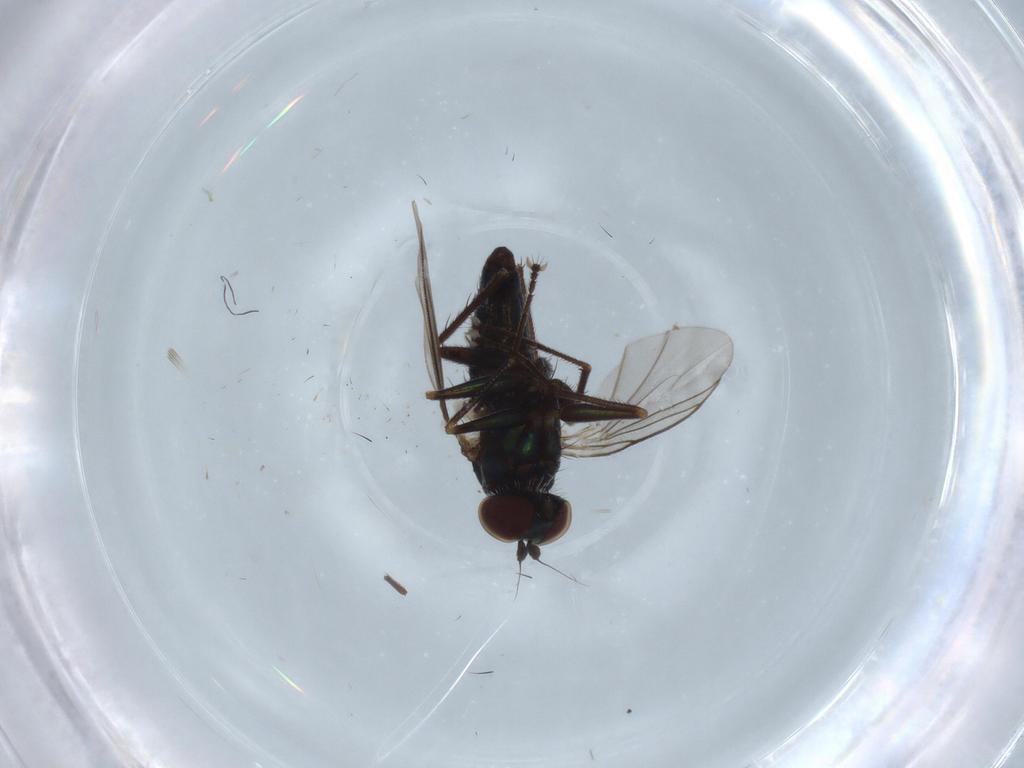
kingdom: Animalia
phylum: Arthropoda
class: Insecta
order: Diptera
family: Dolichopodidae
